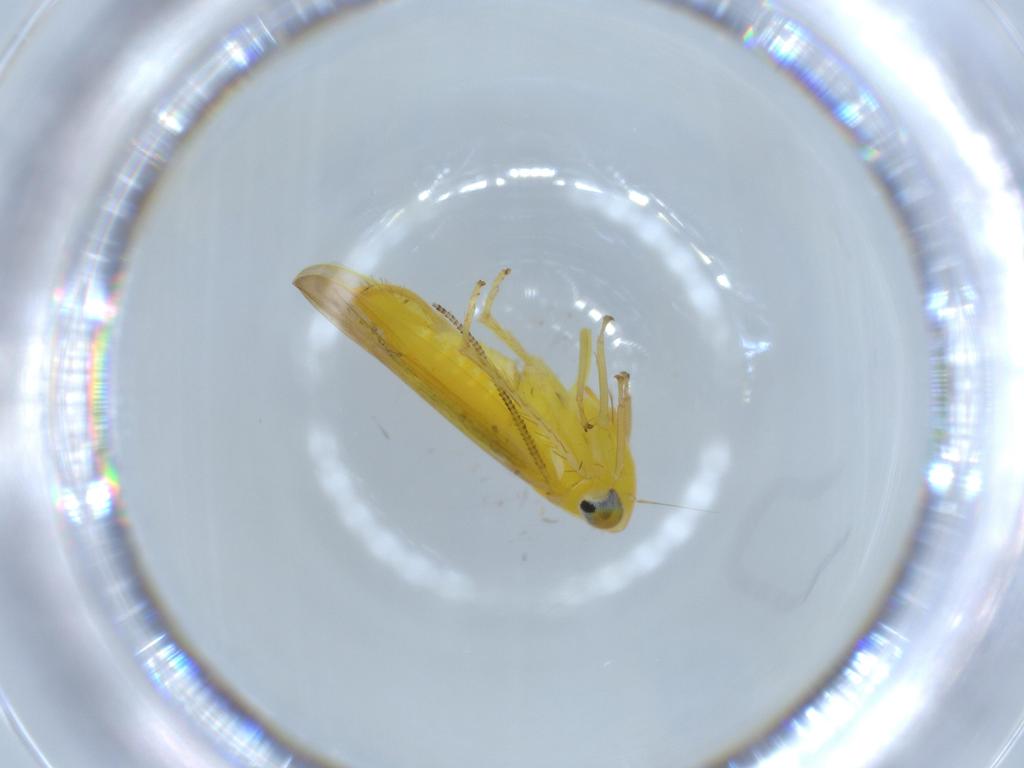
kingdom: Animalia
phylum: Arthropoda
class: Insecta
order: Hemiptera
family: Cicadellidae
